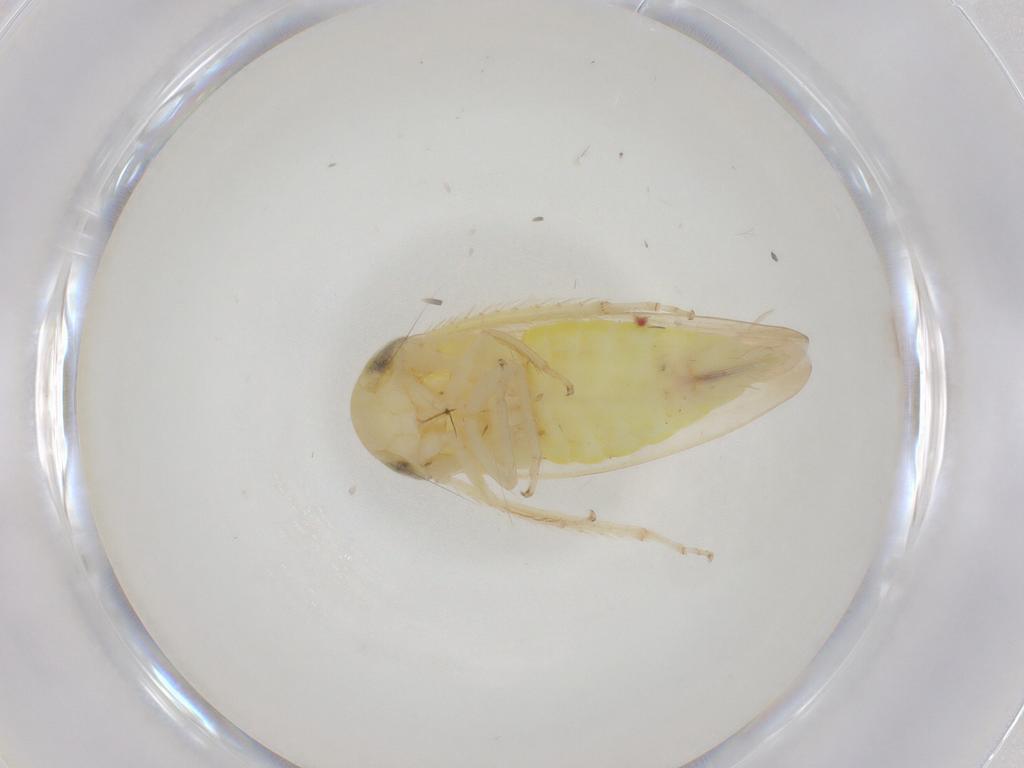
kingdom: Animalia
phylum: Arthropoda
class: Insecta
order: Hemiptera
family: Cicadellidae
